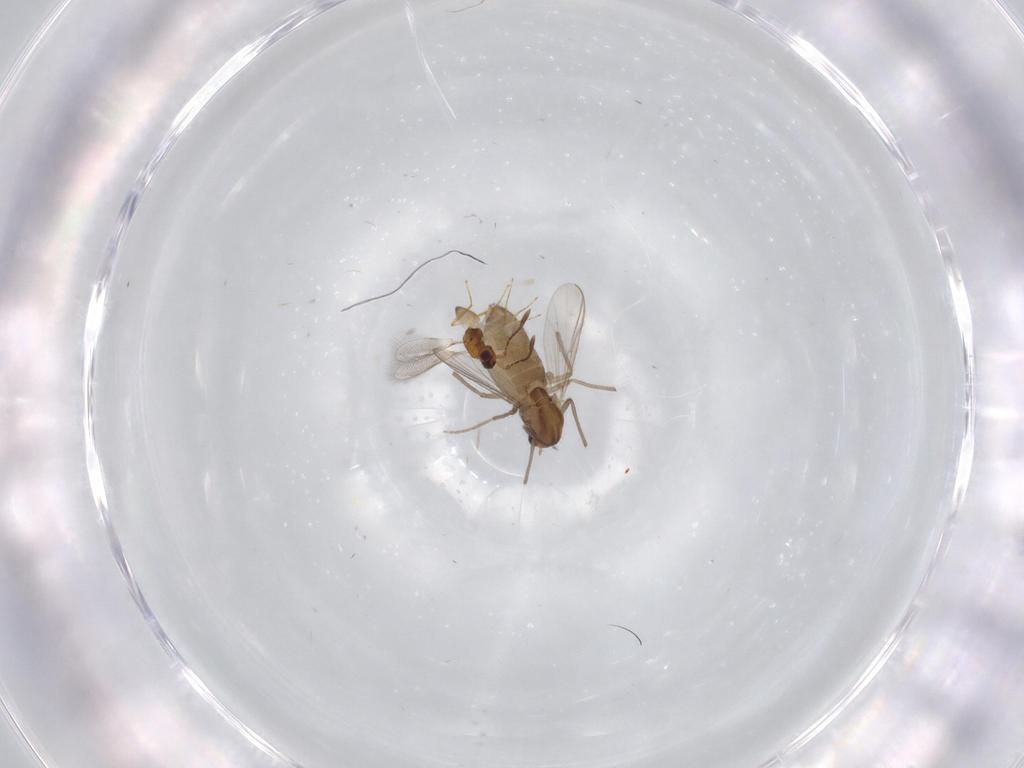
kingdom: Animalia
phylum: Arthropoda
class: Insecta
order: Diptera
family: Chironomidae
